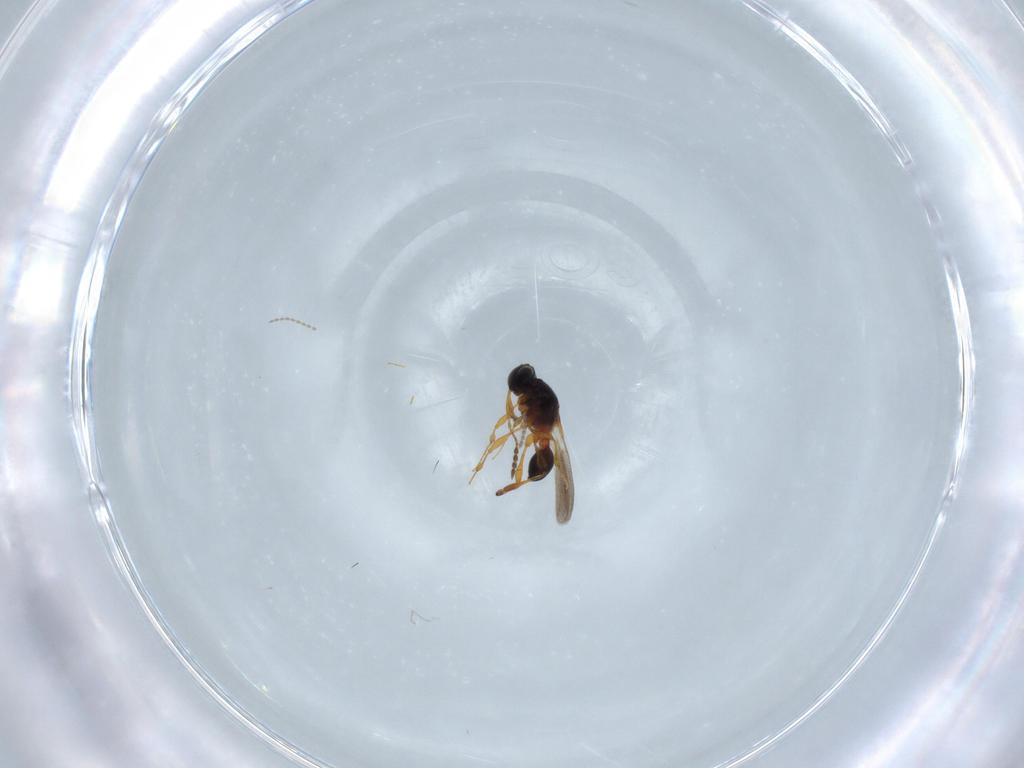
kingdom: Animalia
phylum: Arthropoda
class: Insecta
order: Hymenoptera
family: Platygastridae
